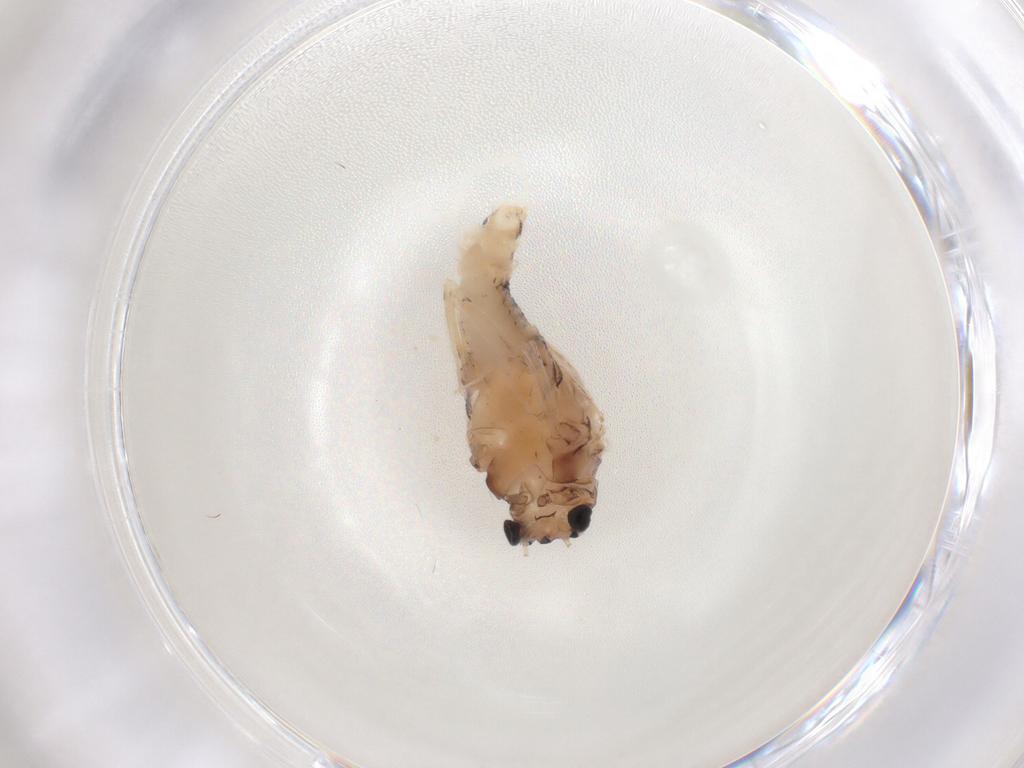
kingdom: Animalia
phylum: Arthropoda
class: Insecta
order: Ephemeroptera
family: Caenidae
